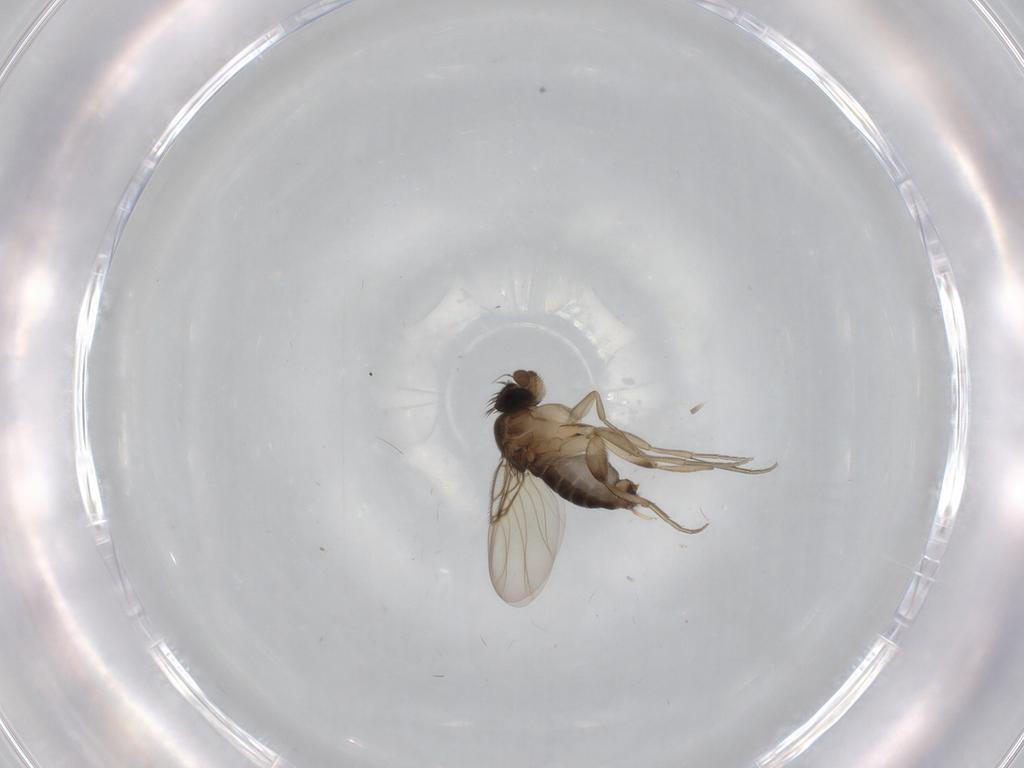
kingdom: Animalia
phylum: Arthropoda
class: Insecta
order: Diptera
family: Phoridae
